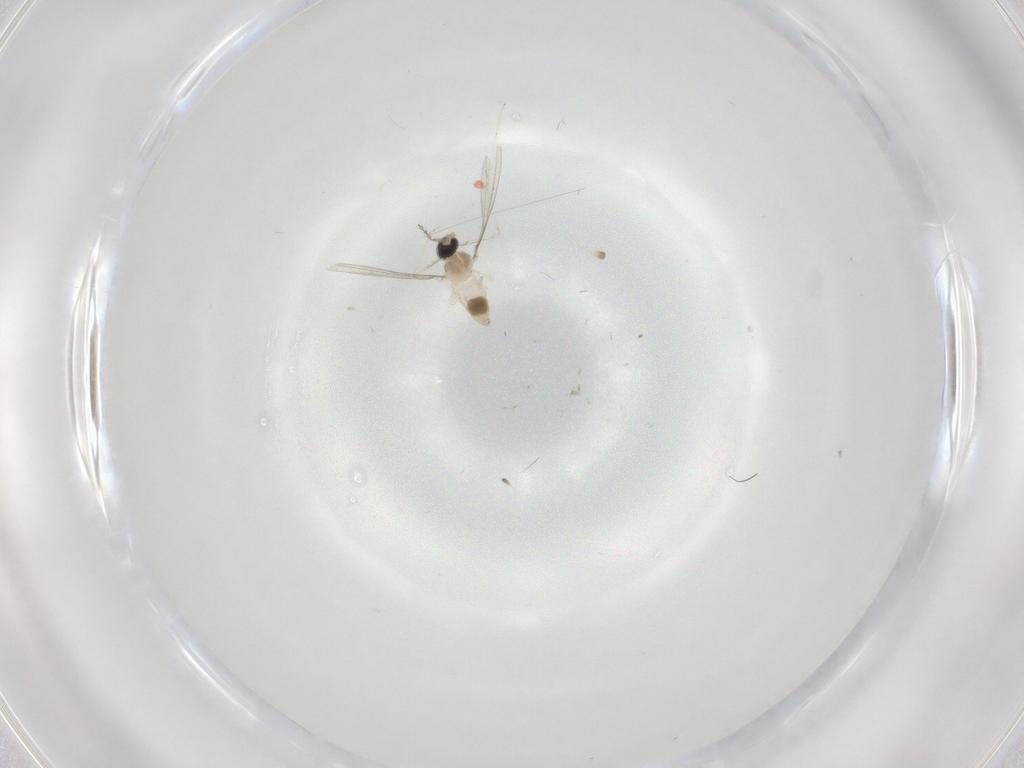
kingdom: Animalia
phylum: Arthropoda
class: Insecta
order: Diptera
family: Cecidomyiidae
